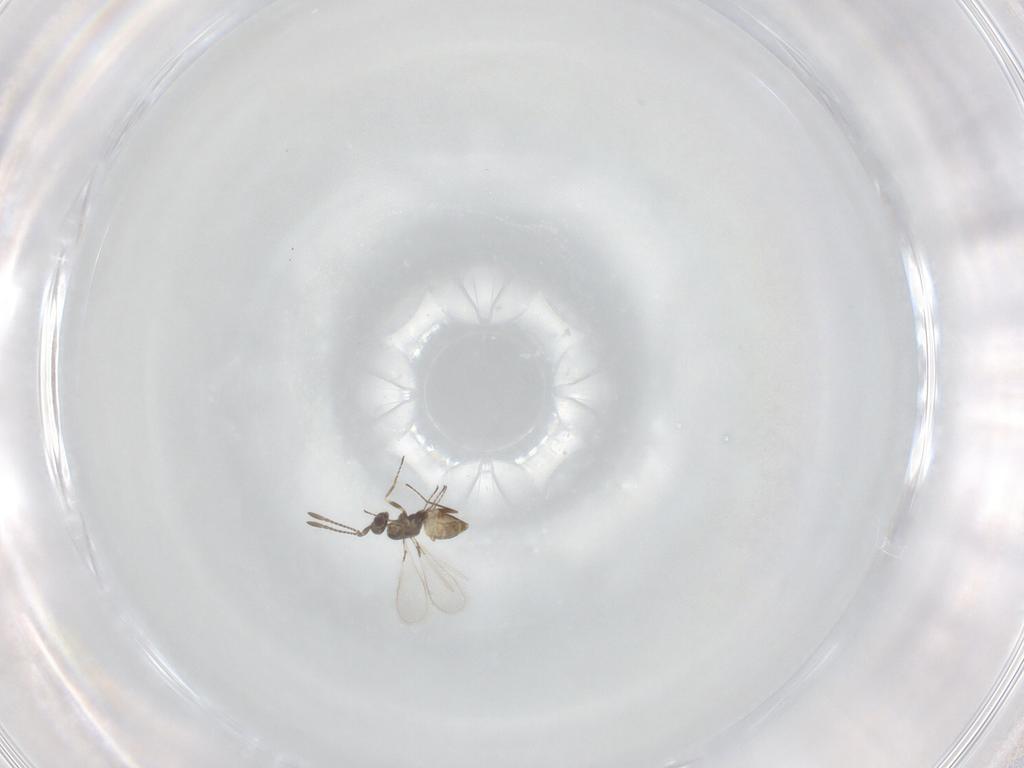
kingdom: Animalia
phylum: Arthropoda
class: Insecta
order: Hymenoptera
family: Mymaridae
